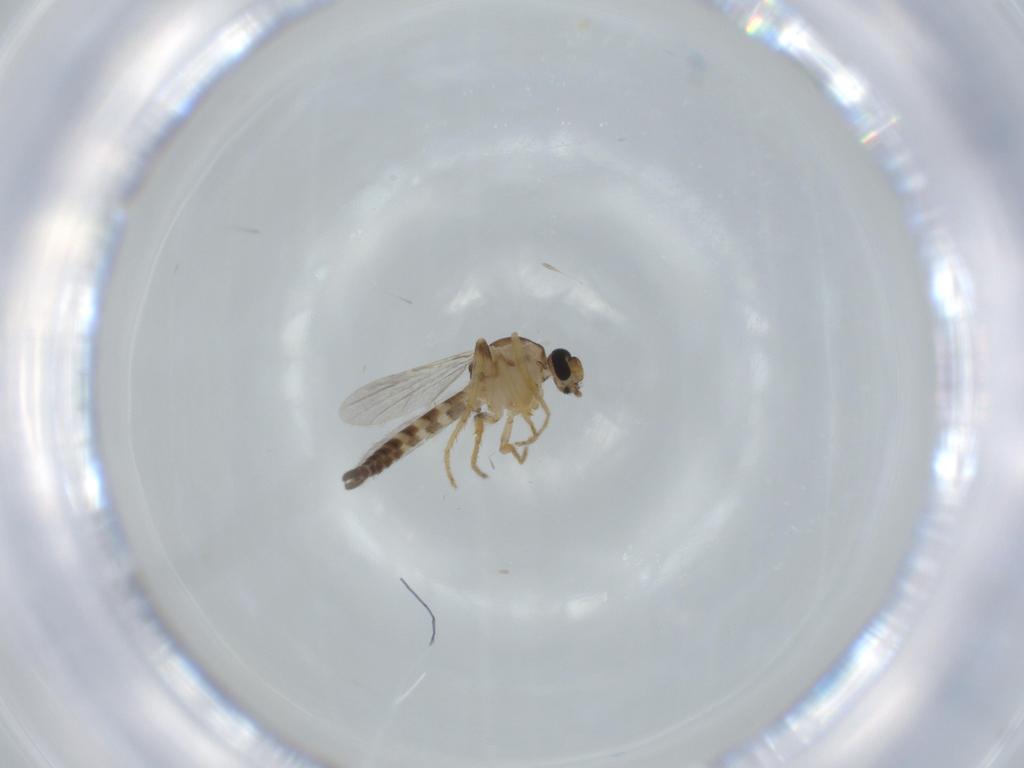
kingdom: Animalia
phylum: Arthropoda
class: Insecta
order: Diptera
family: Ceratopogonidae
